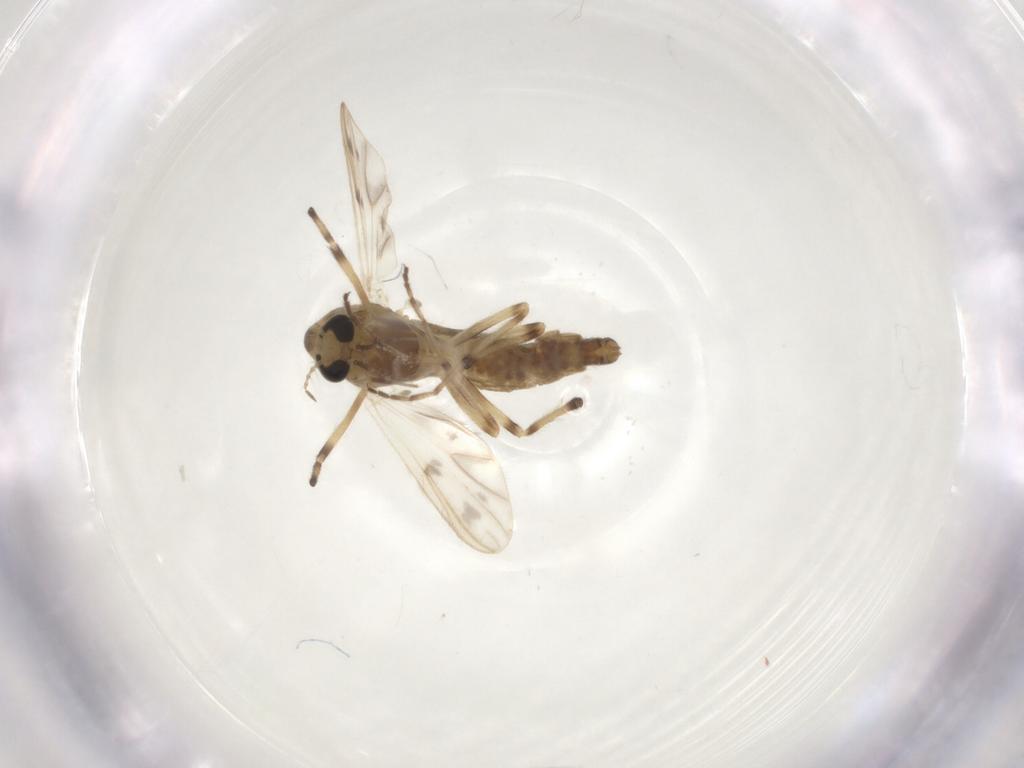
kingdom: Animalia
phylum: Arthropoda
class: Insecta
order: Diptera
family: Chironomidae
